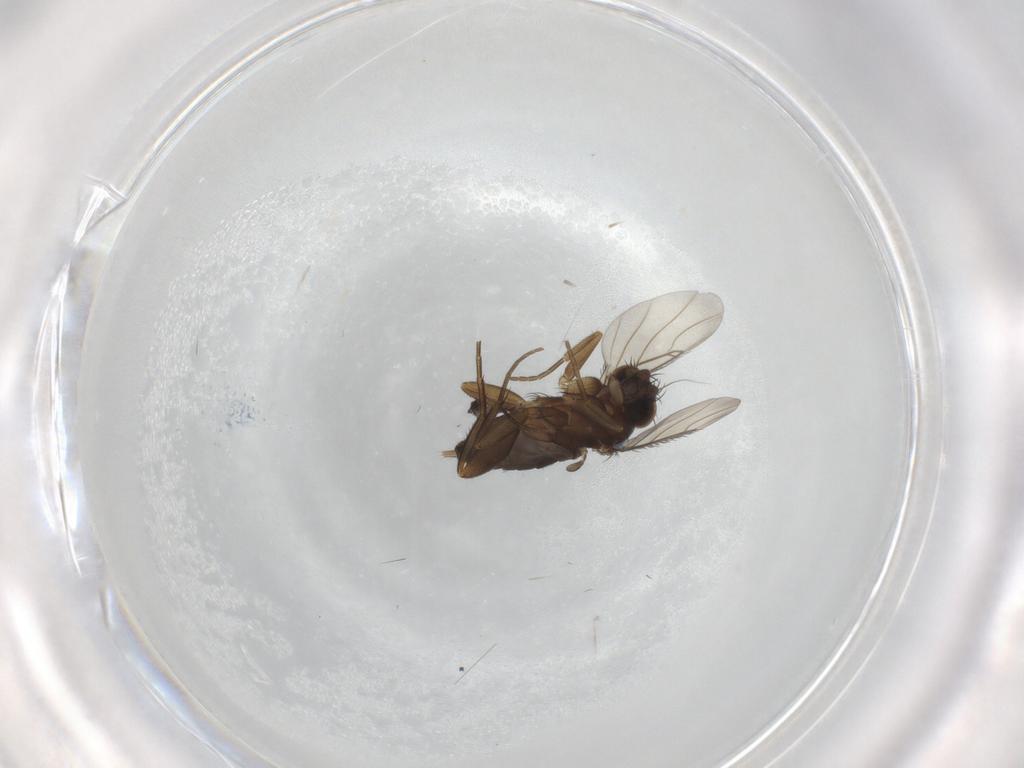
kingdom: Animalia
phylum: Arthropoda
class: Insecta
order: Diptera
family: Phoridae
